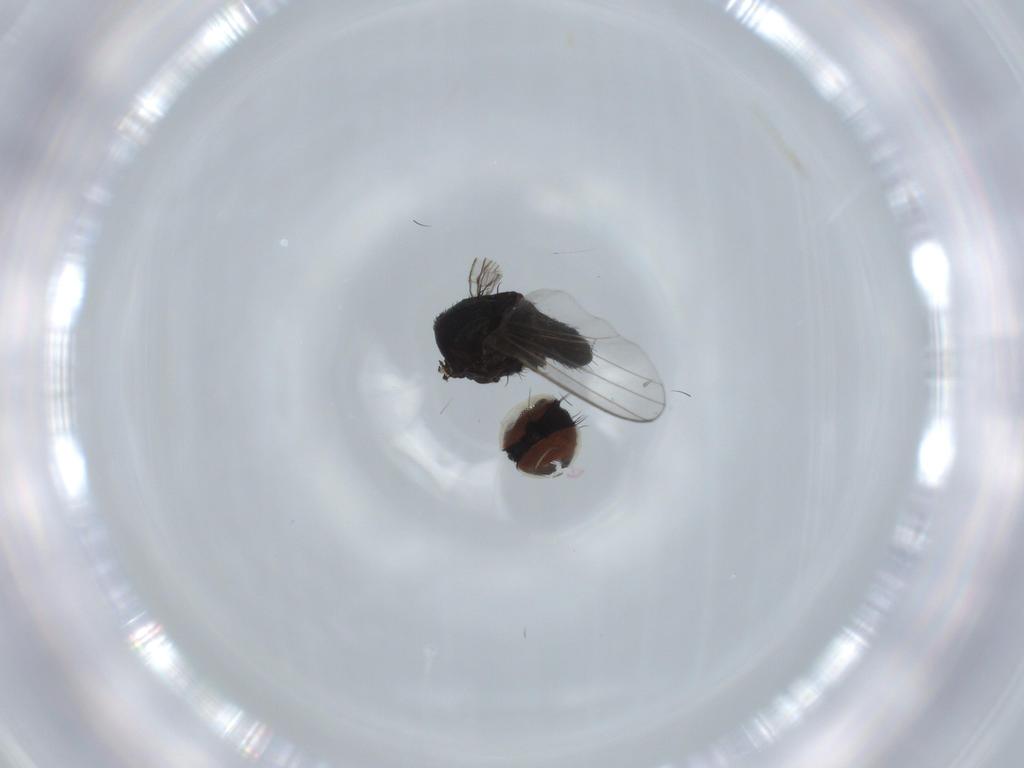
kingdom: Animalia
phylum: Arthropoda
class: Insecta
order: Diptera
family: Milichiidae
